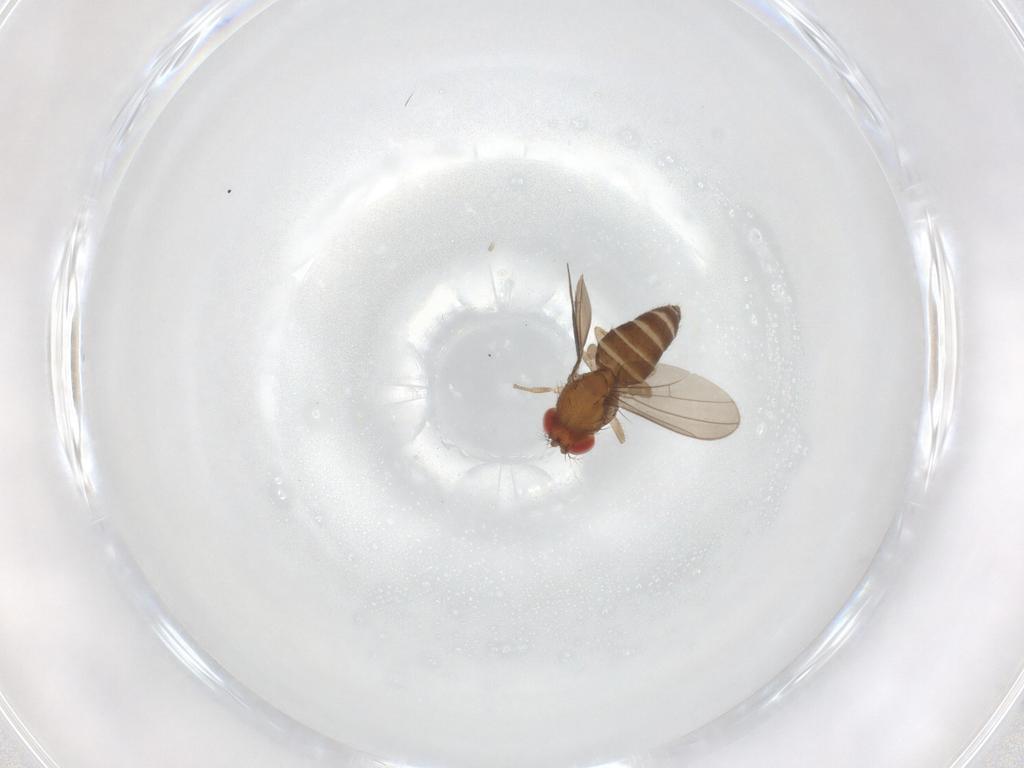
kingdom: Animalia
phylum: Arthropoda
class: Insecta
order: Diptera
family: Drosophilidae
